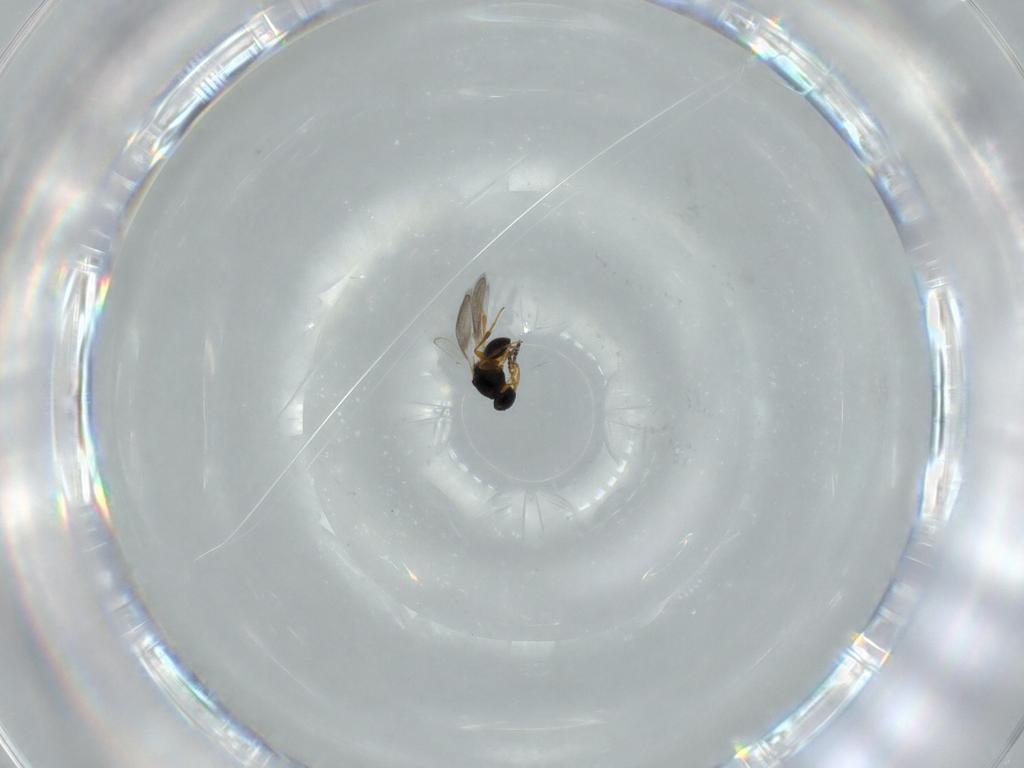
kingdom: Animalia
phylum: Arthropoda
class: Insecta
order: Hymenoptera
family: Platygastridae
